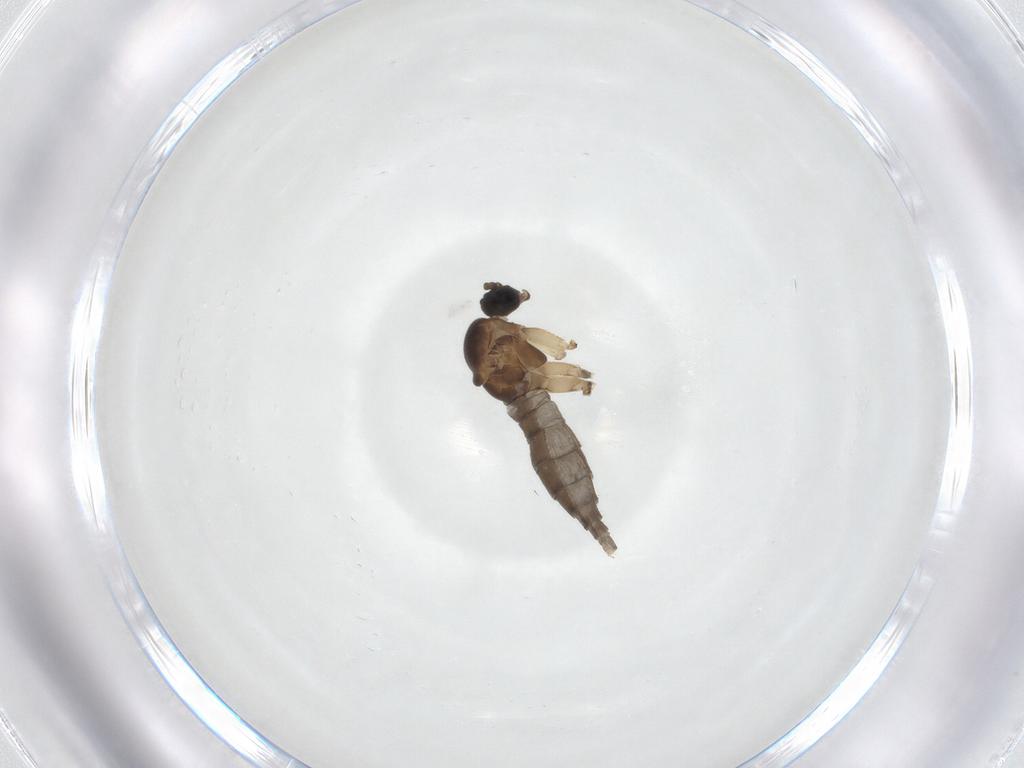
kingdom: Animalia
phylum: Arthropoda
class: Insecta
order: Diptera
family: Sciaridae
